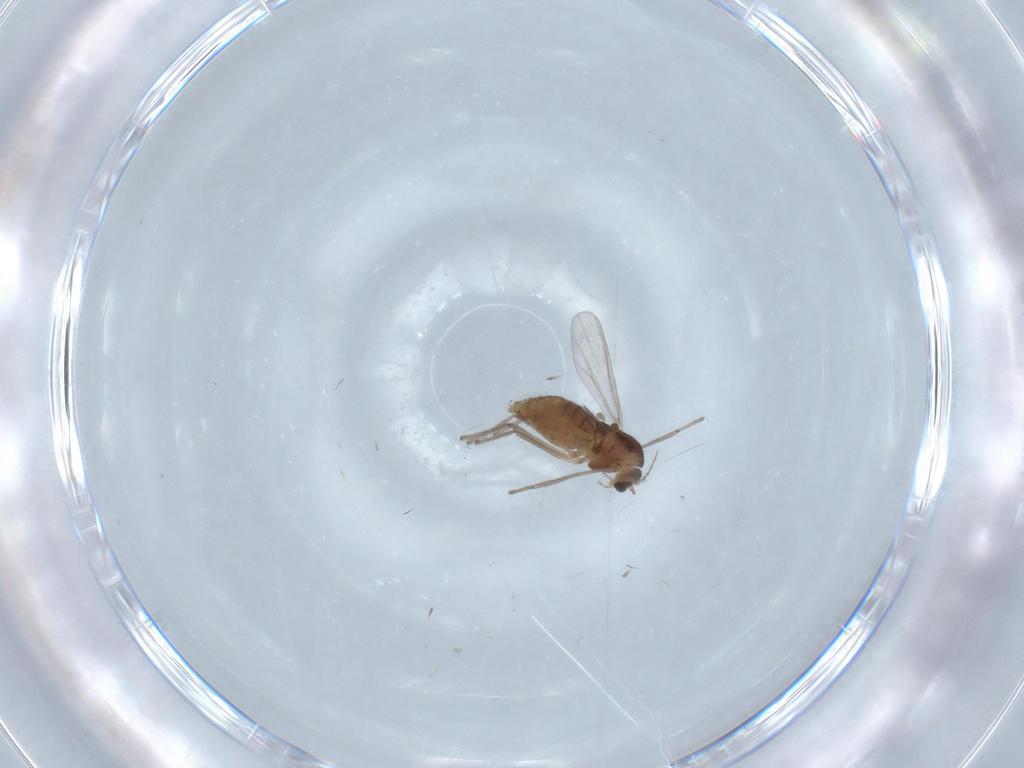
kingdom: Animalia
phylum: Arthropoda
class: Insecta
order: Diptera
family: Chironomidae
